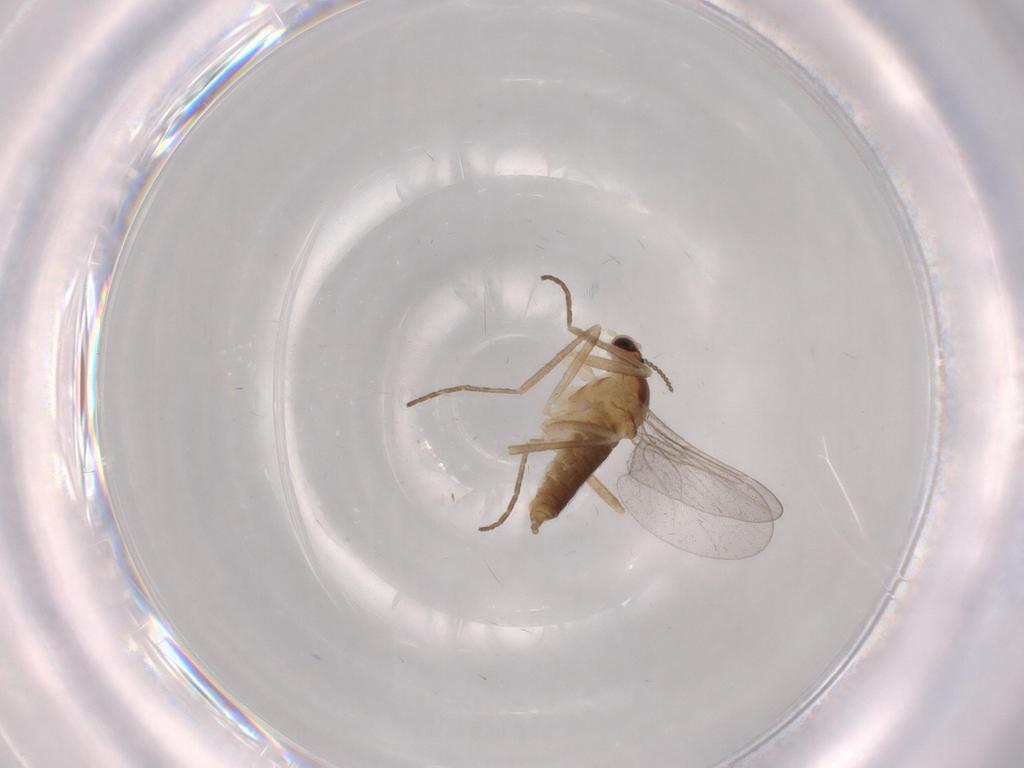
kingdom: Animalia
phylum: Arthropoda
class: Insecta
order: Diptera
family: Cecidomyiidae
